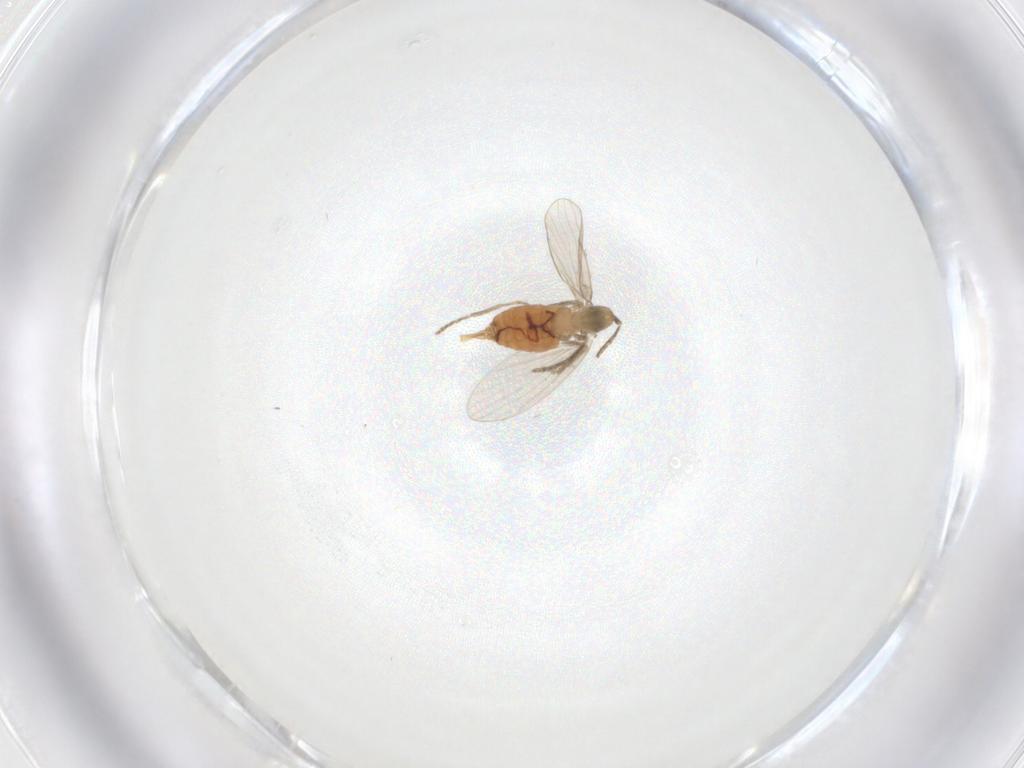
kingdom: Animalia
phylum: Arthropoda
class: Insecta
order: Diptera
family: Psychodidae
